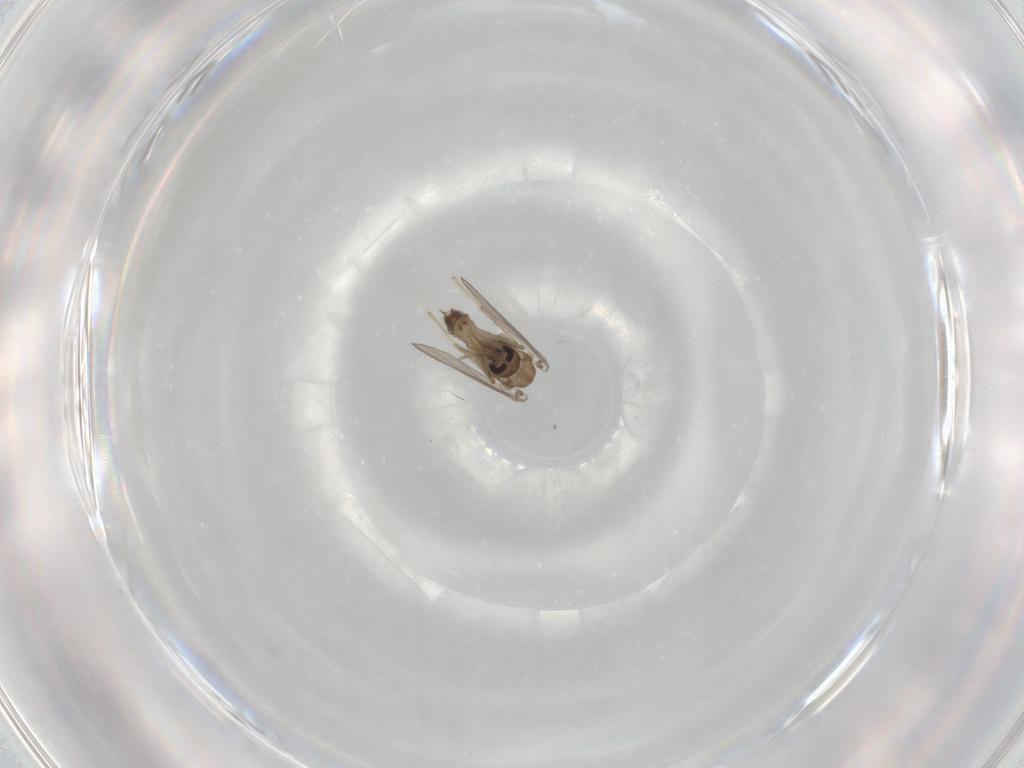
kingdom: Animalia
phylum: Arthropoda
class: Insecta
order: Diptera
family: Psychodidae
